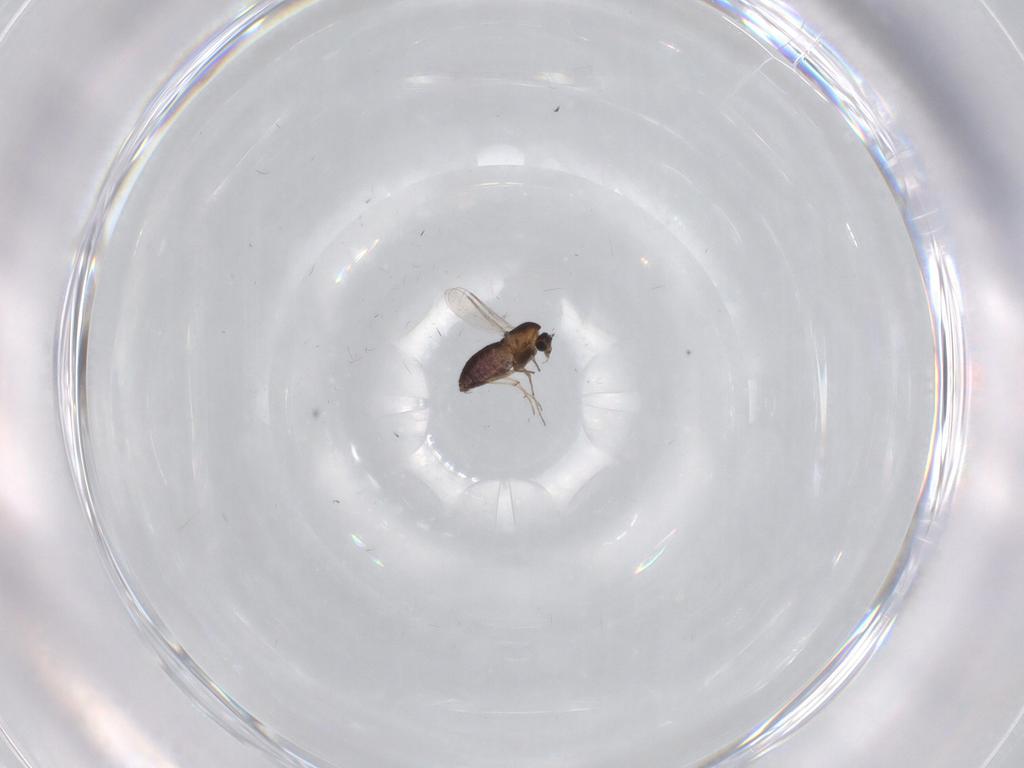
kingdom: Animalia
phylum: Arthropoda
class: Insecta
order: Diptera
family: Chironomidae
